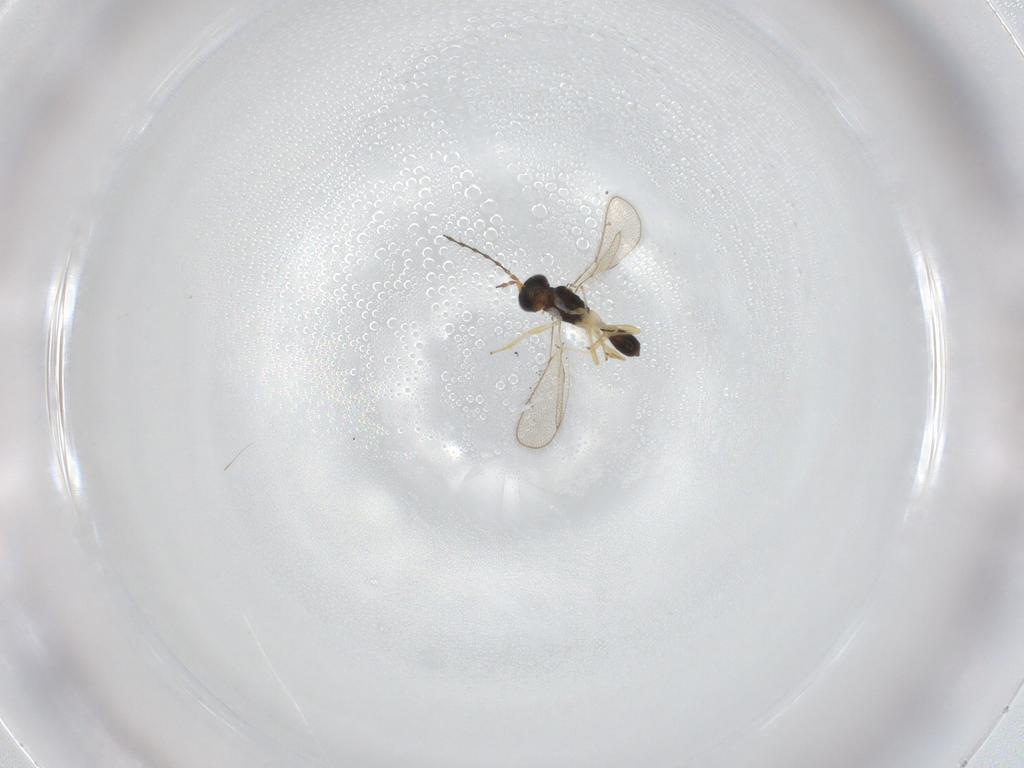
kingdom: Animalia
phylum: Arthropoda
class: Insecta
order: Hymenoptera
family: Diparidae
